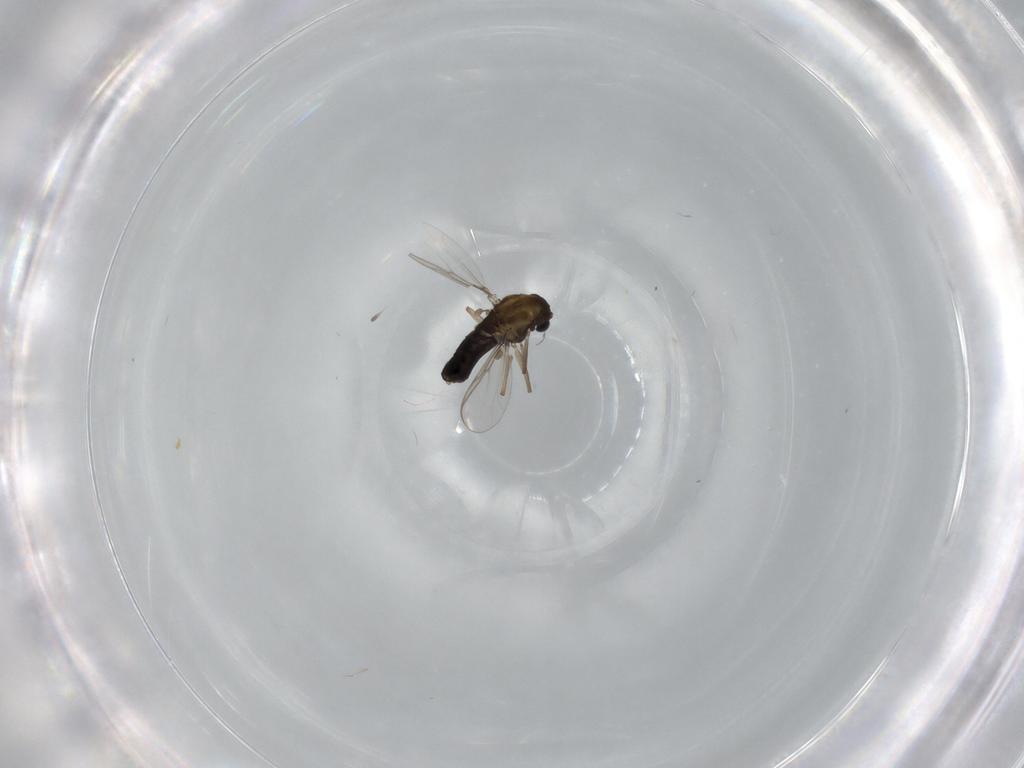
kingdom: Animalia
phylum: Arthropoda
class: Insecta
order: Diptera
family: Chironomidae
